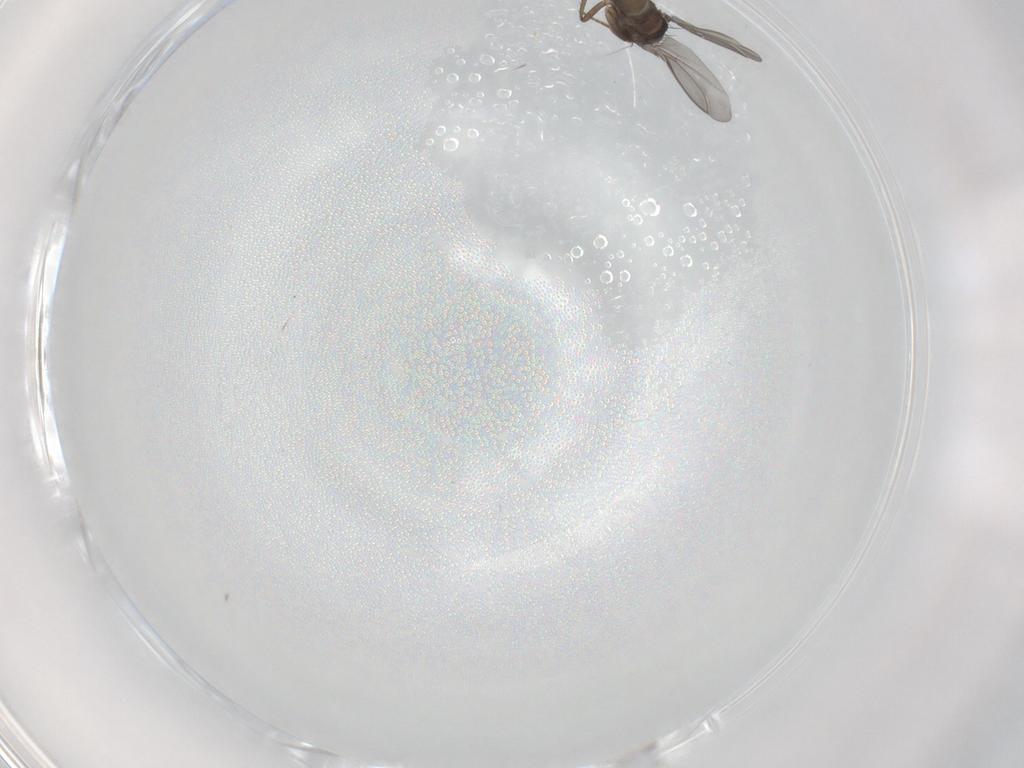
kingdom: Animalia
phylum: Arthropoda
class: Insecta
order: Diptera
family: Sphaeroceridae
